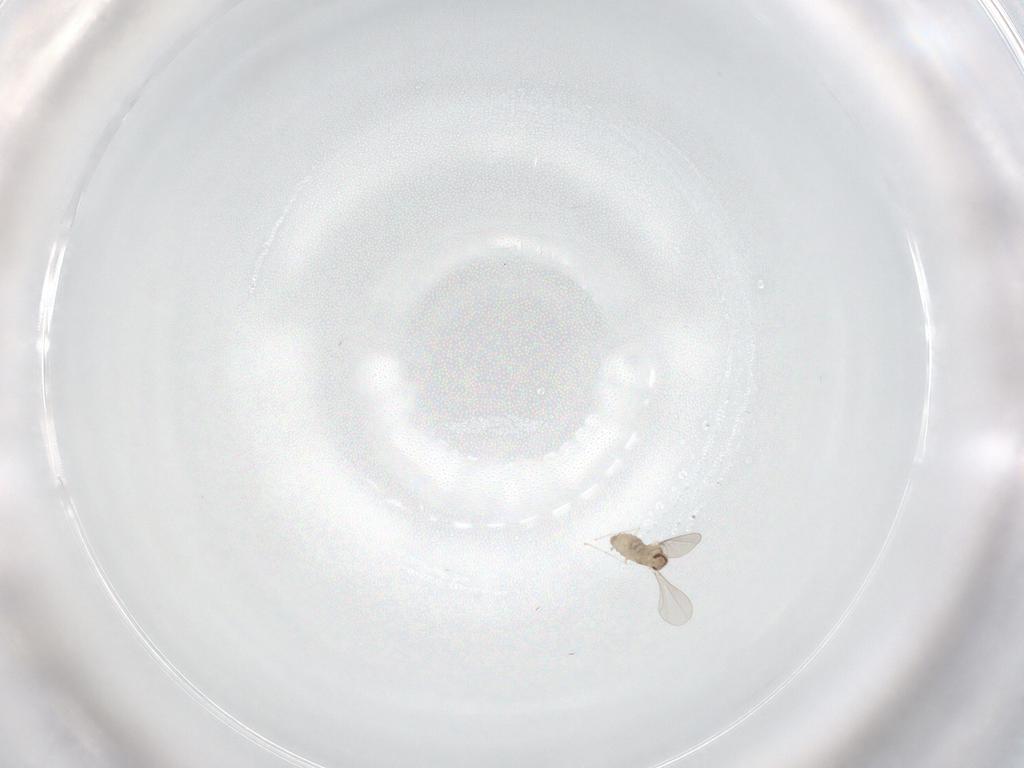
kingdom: Animalia
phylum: Arthropoda
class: Insecta
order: Diptera
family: Cecidomyiidae
